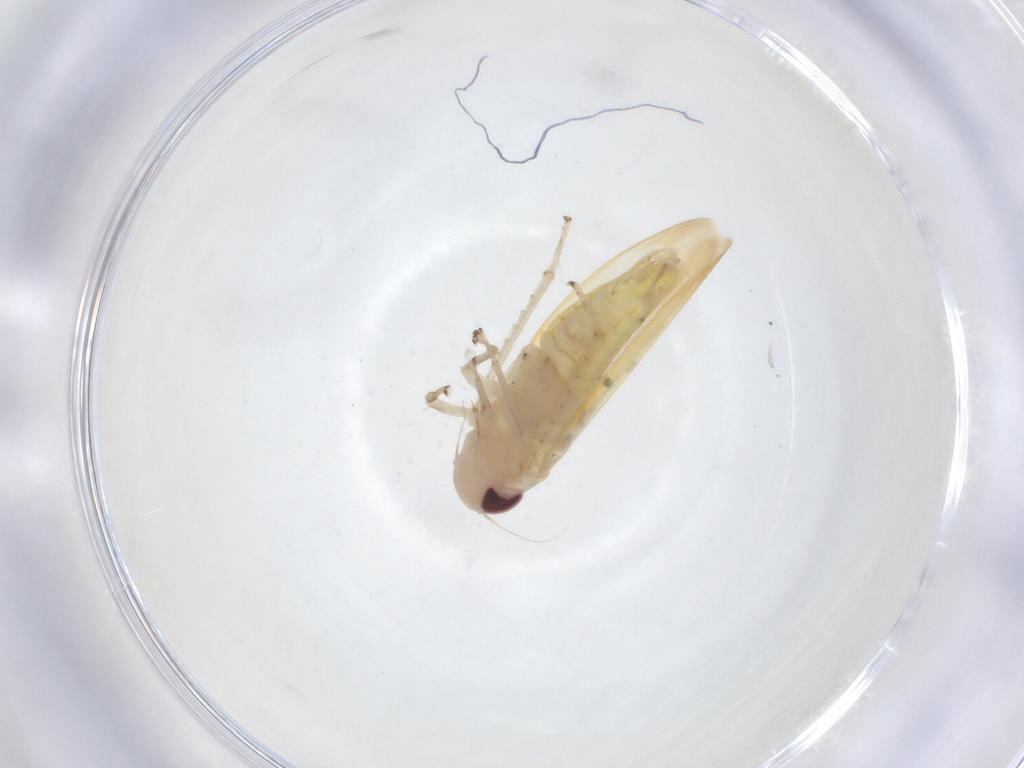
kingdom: Animalia
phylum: Arthropoda
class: Insecta
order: Hemiptera
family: Cicadellidae
